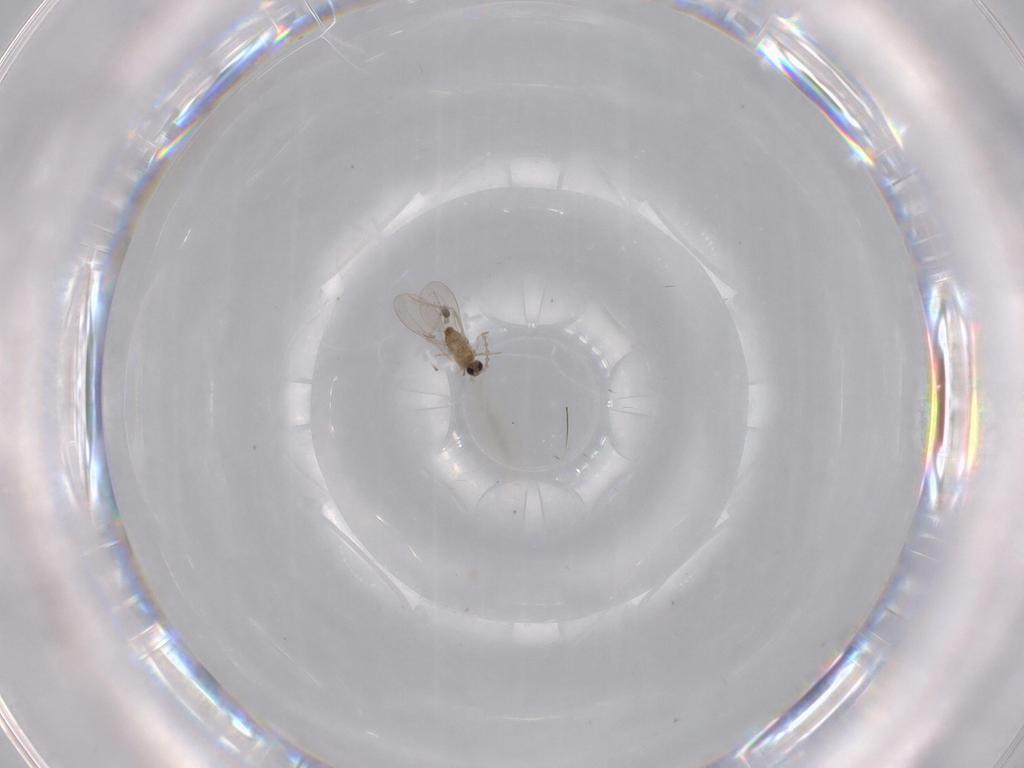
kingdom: Animalia
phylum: Arthropoda
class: Insecta
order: Diptera
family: Cecidomyiidae
